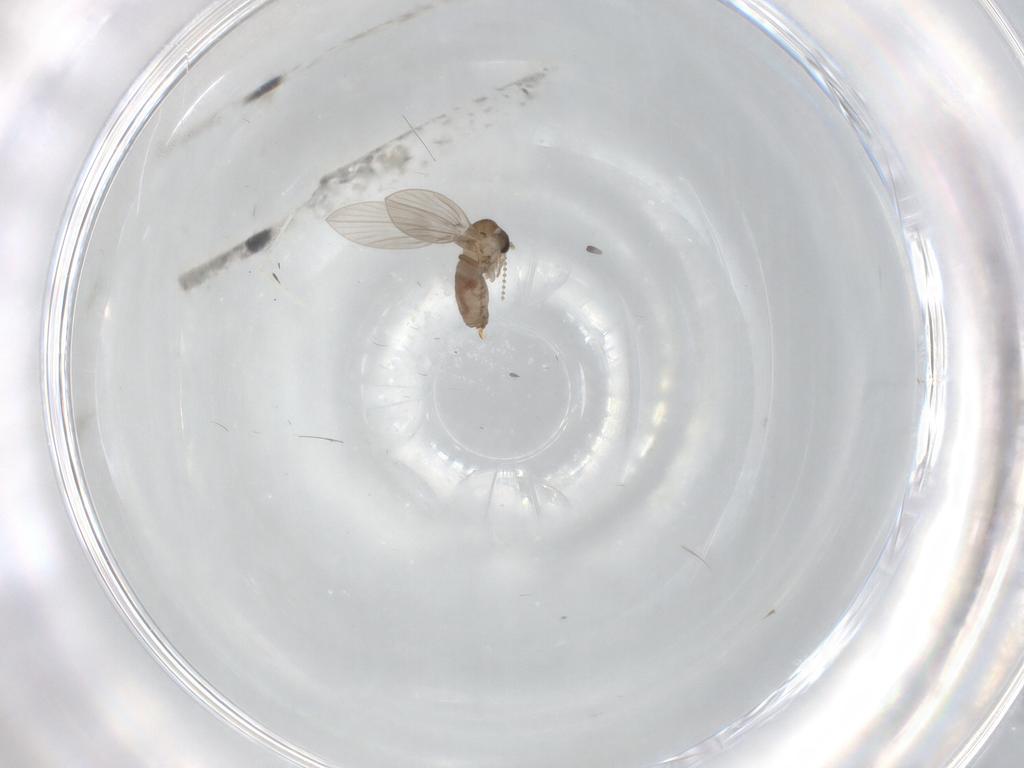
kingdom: Animalia
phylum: Arthropoda
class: Insecta
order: Diptera
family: Psychodidae
